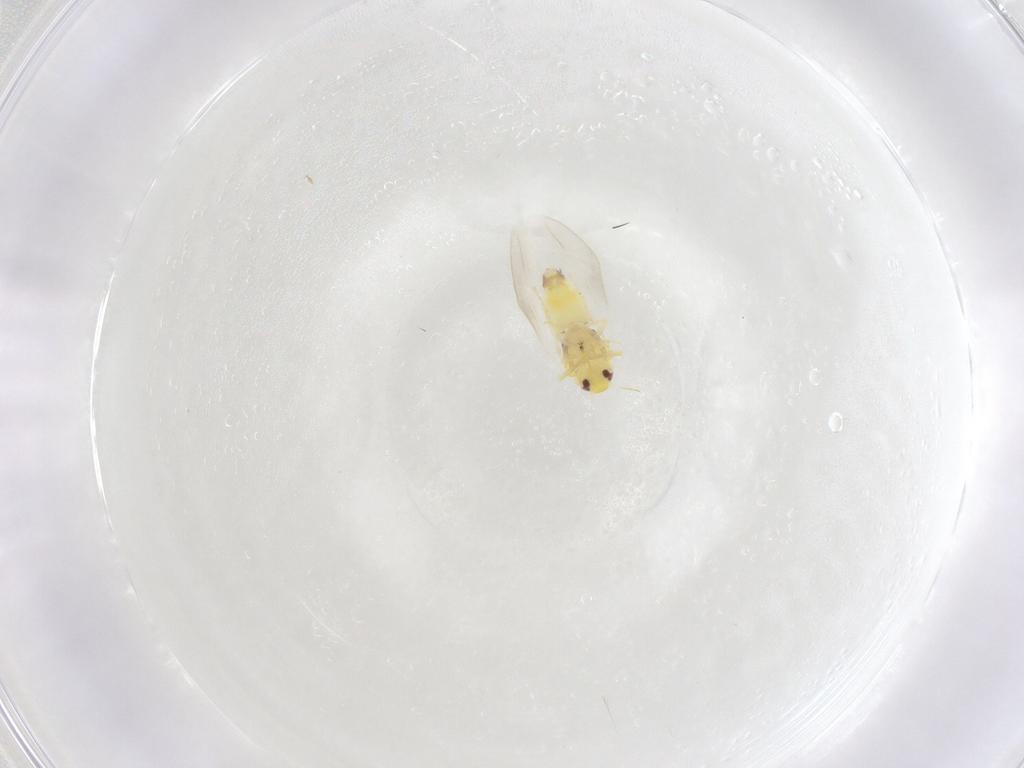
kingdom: Animalia
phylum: Arthropoda
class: Insecta
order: Hemiptera
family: Aleyrodidae
